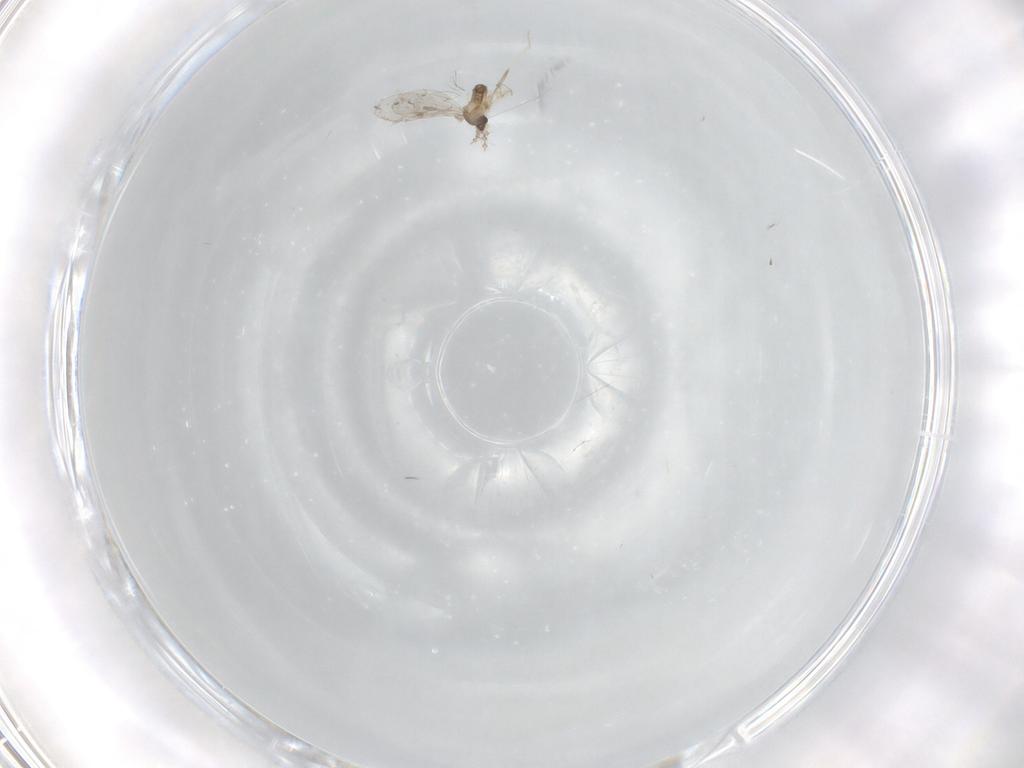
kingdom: Animalia
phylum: Arthropoda
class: Insecta
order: Diptera
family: Cecidomyiidae
